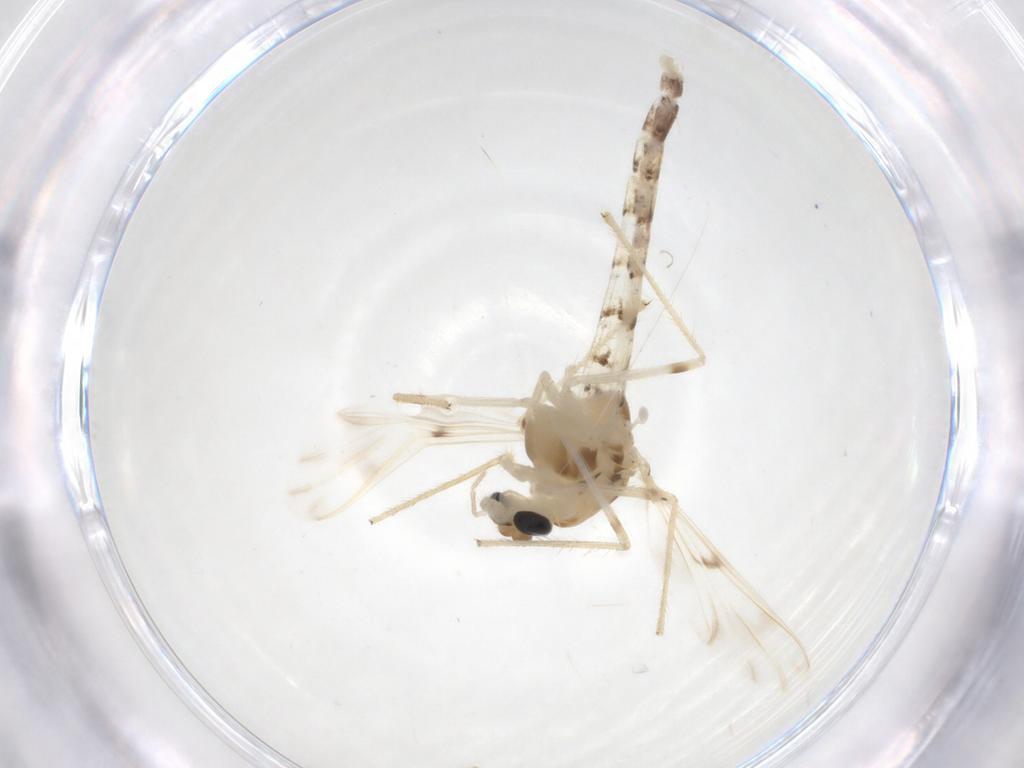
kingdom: Animalia
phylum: Arthropoda
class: Insecta
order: Diptera
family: Chironomidae
